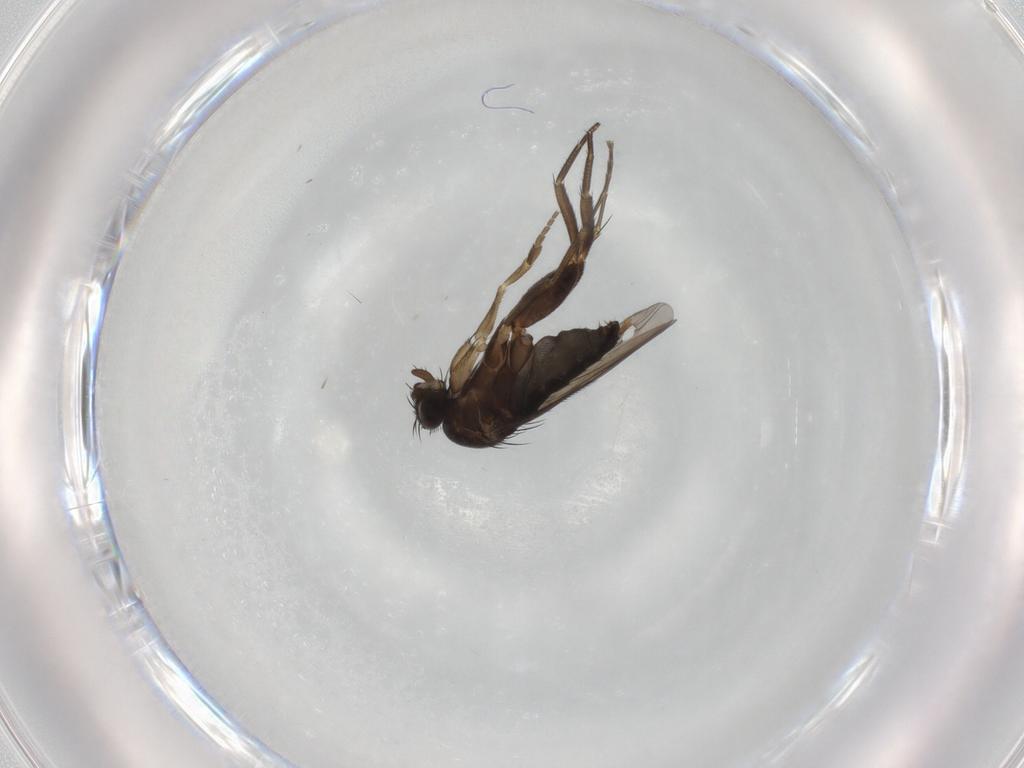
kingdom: Animalia
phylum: Arthropoda
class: Insecta
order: Diptera
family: Phoridae
